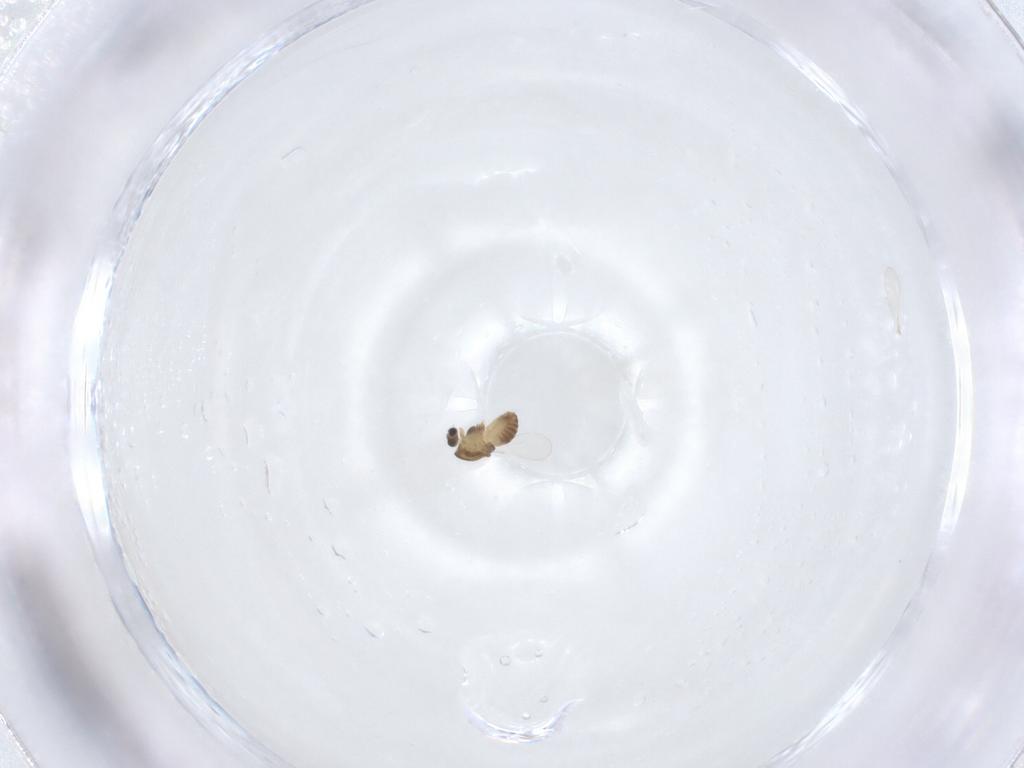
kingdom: Animalia
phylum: Arthropoda
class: Insecta
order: Diptera
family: Chironomidae
